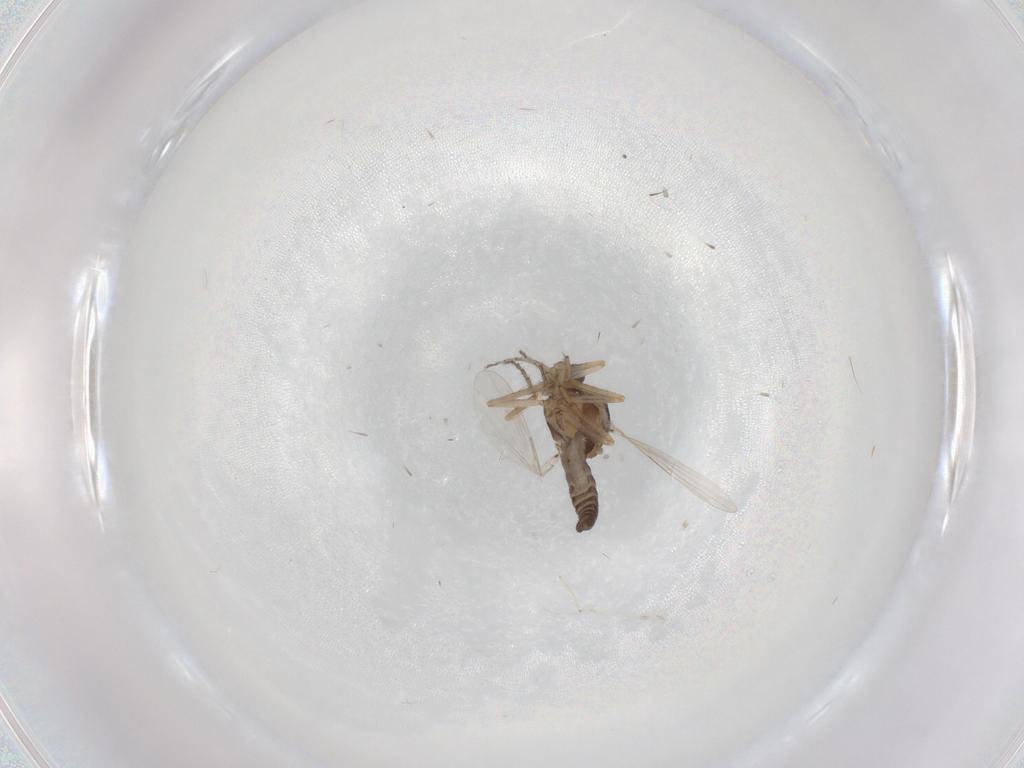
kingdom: Animalia
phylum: Arthropoda
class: Insecta
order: Diptera
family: Ceratopogonidae
